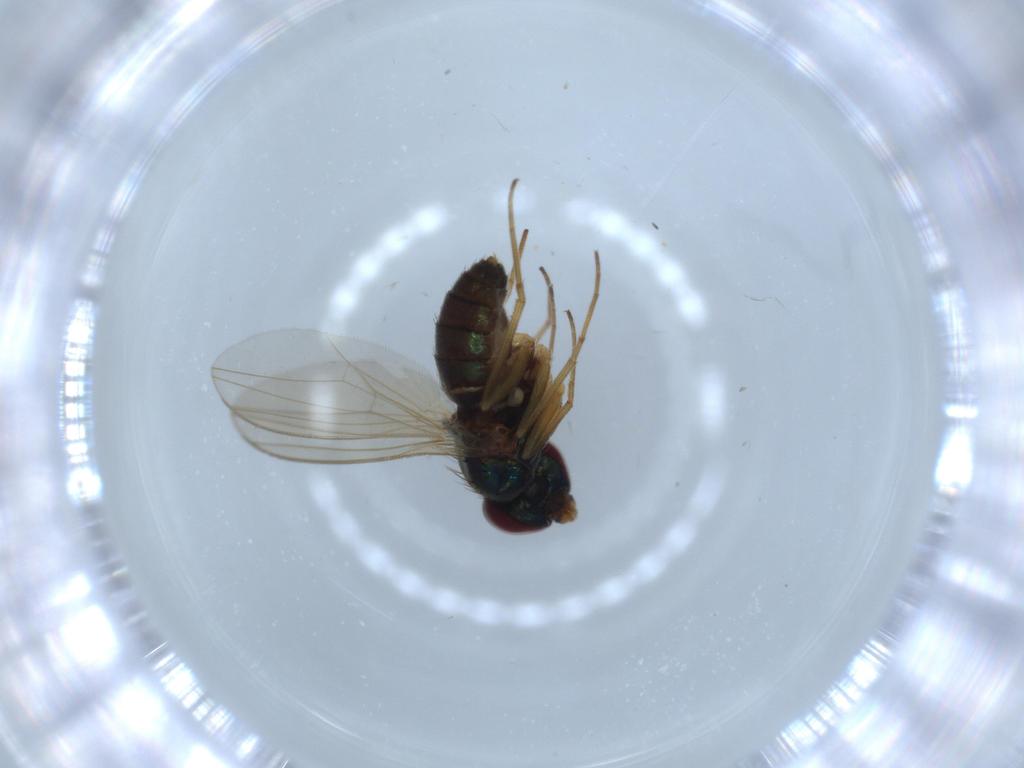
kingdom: Animalia
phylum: Arthropoda
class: Insecta
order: Diptera
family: Dolichopodidae
